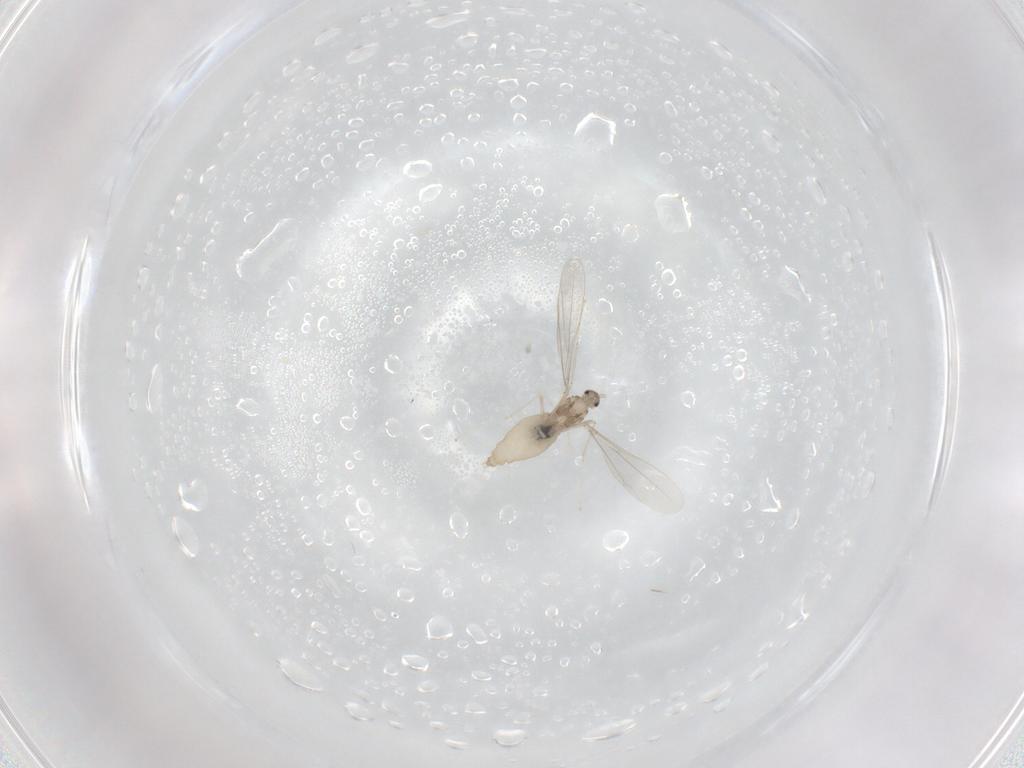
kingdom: Animalia
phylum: Arthropoda
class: Insecta
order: Diptera
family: Cecidomyiidae
